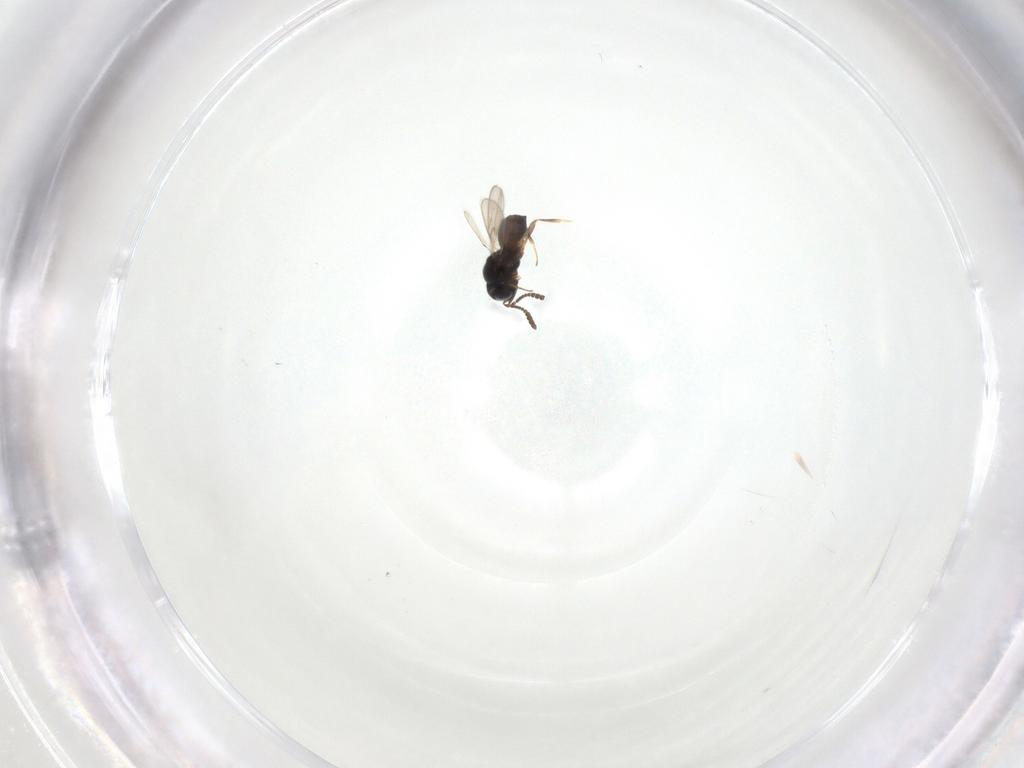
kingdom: Animalia
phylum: Arthropoda
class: Insecta
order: Hymenoptera
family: Scelionidae
